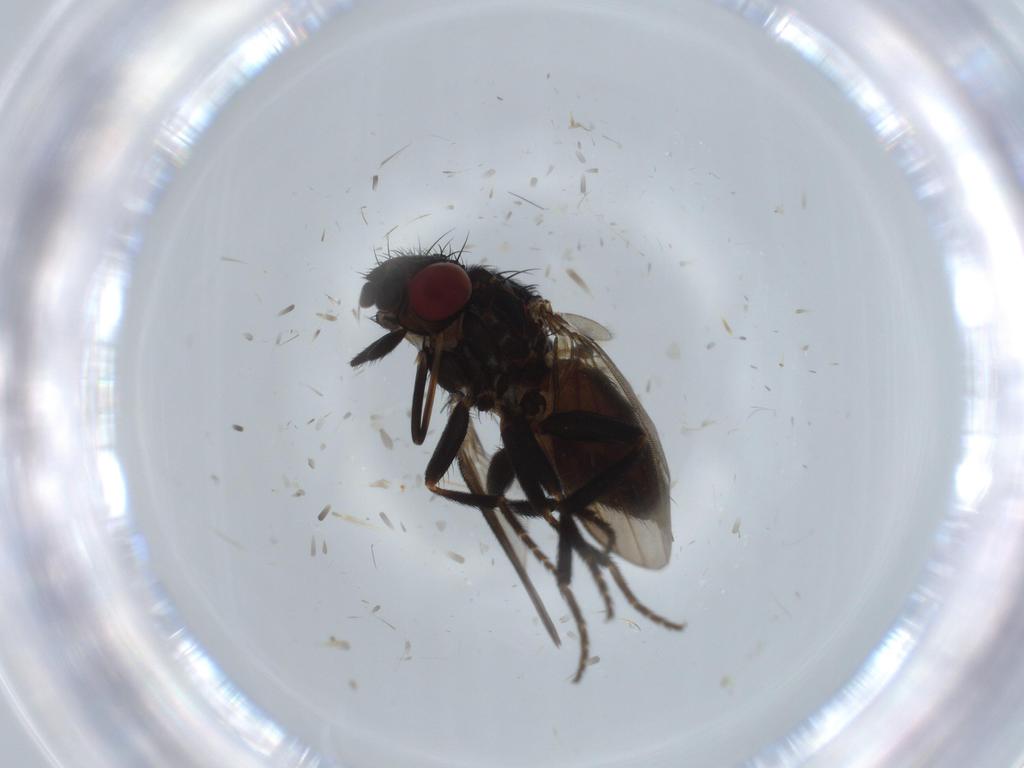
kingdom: Animalia
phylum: Arthropoda
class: Insecta
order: Diptera
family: Milichiidae
